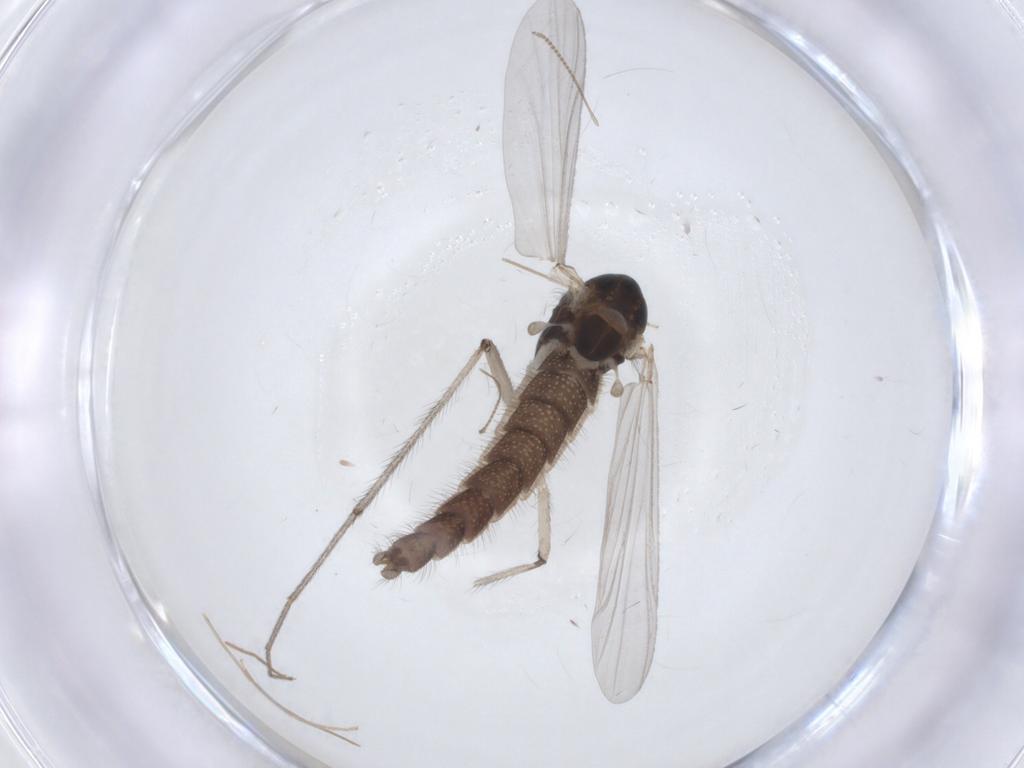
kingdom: Animalia
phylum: Arthropoda
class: Insecta
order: Diptera
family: Chironomidae
